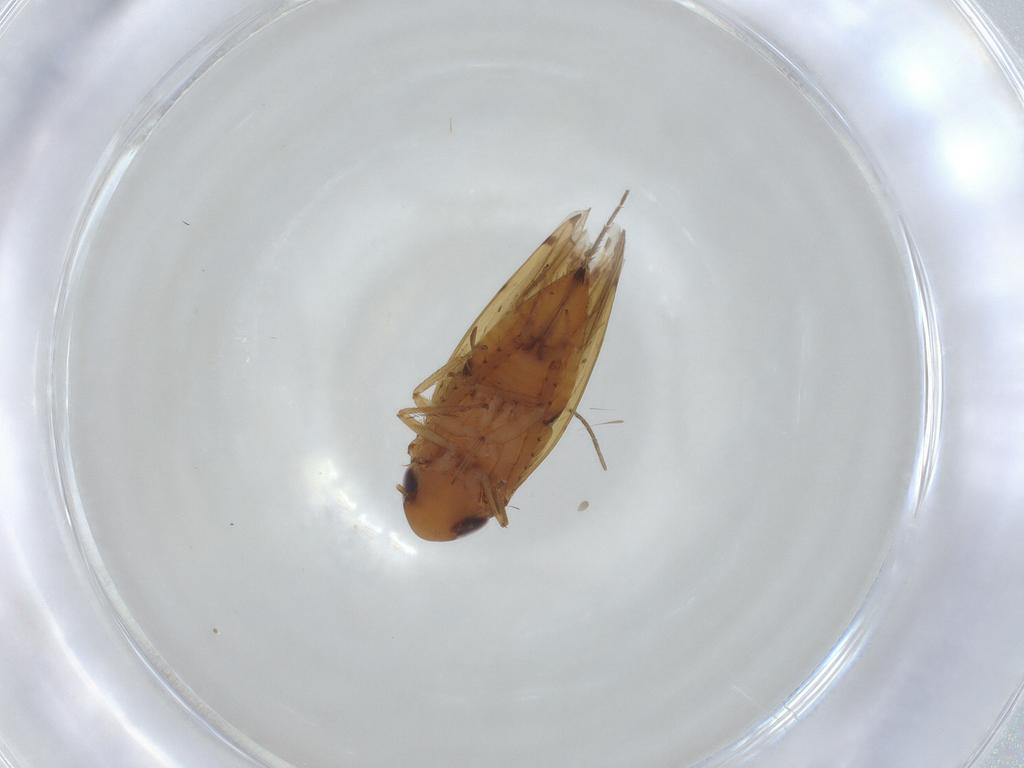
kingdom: Animalia
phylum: Arthropoda
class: Insecta
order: Hemiptera
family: Cicadellidae
